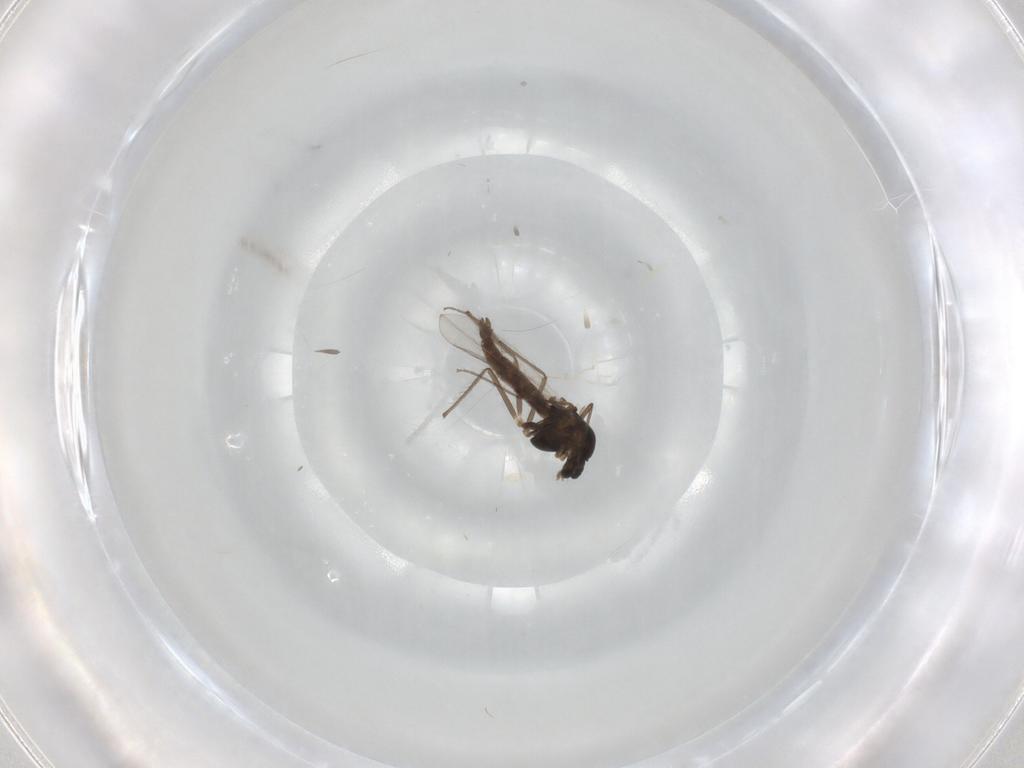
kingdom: Animalia
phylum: Arthropoda
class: Insecta
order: Diptera
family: Chironomidae
